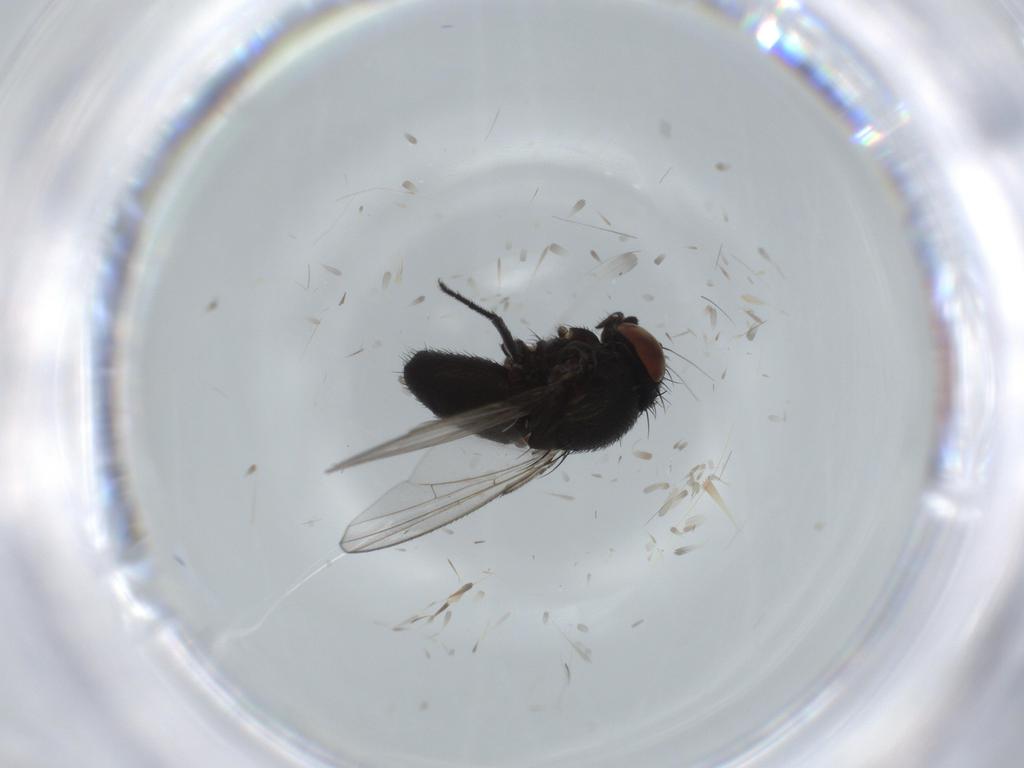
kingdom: Animalia
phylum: Arthropoda
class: Insecta
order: Diptera
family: Milichiidae
